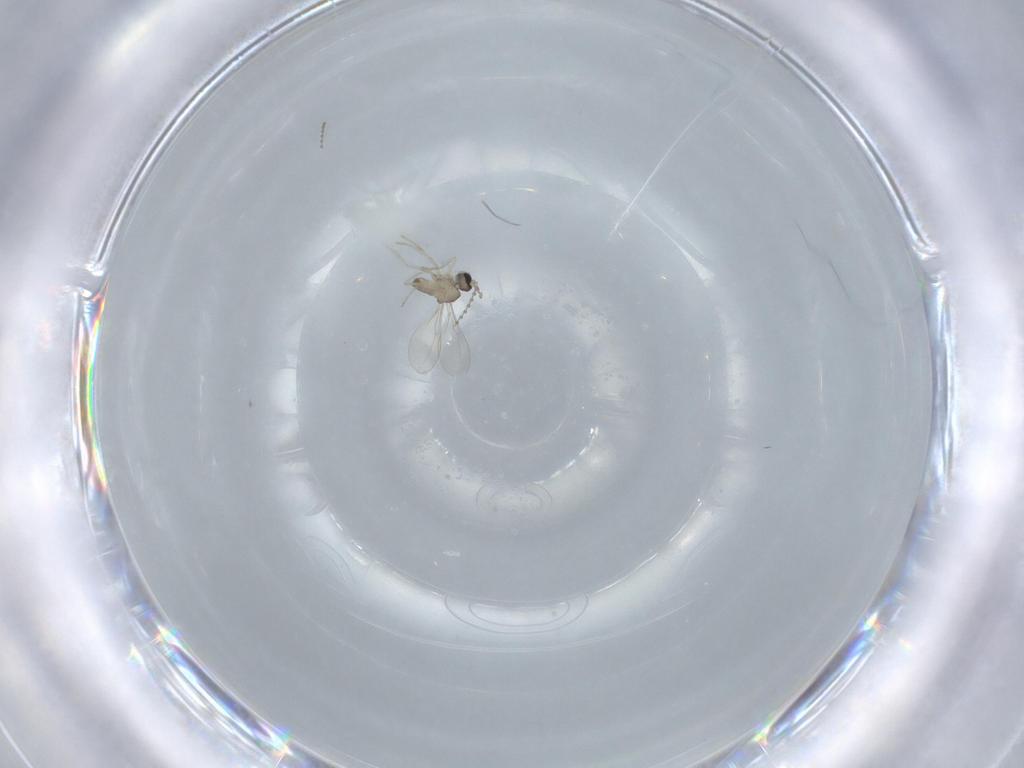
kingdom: Animalia
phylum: Arthropoda
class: Insecta
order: Diptera
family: Cecidomyiidae
